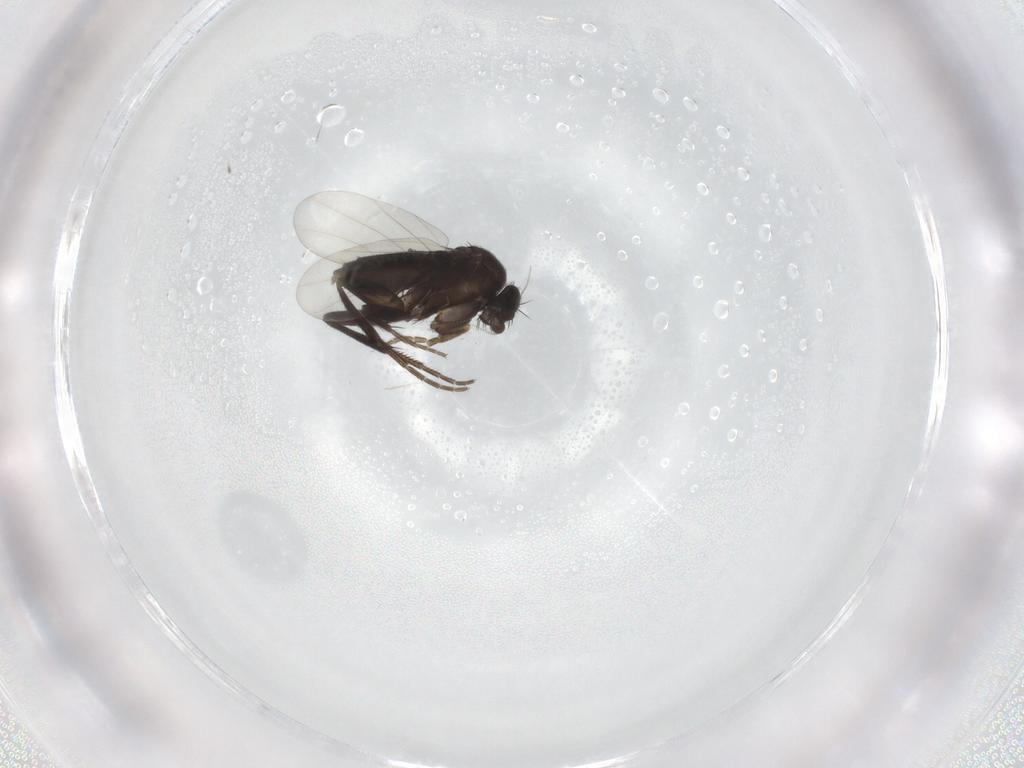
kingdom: Animalia
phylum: Arthropoda
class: Insecta
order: Diptera
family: Phoridae
